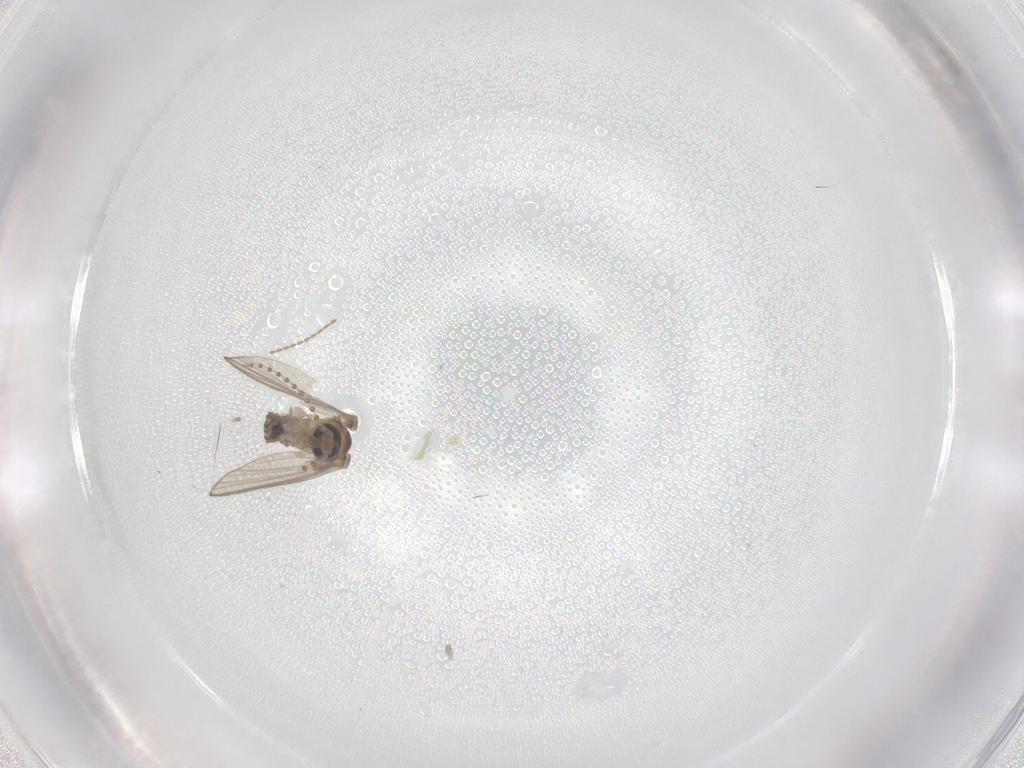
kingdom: Animalia
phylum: Arthropoda
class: Insecta
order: Diptera
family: Psychodidae
